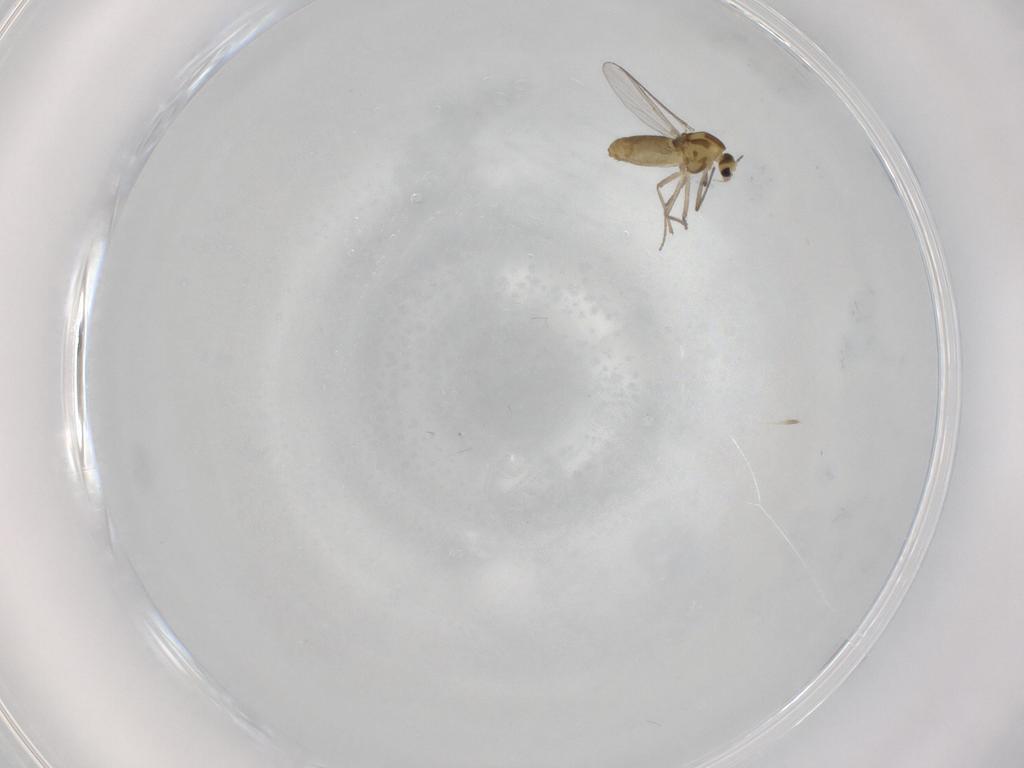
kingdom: Animalia
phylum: Arthropoda
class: Insecta
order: Diptera
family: Chironomidae
